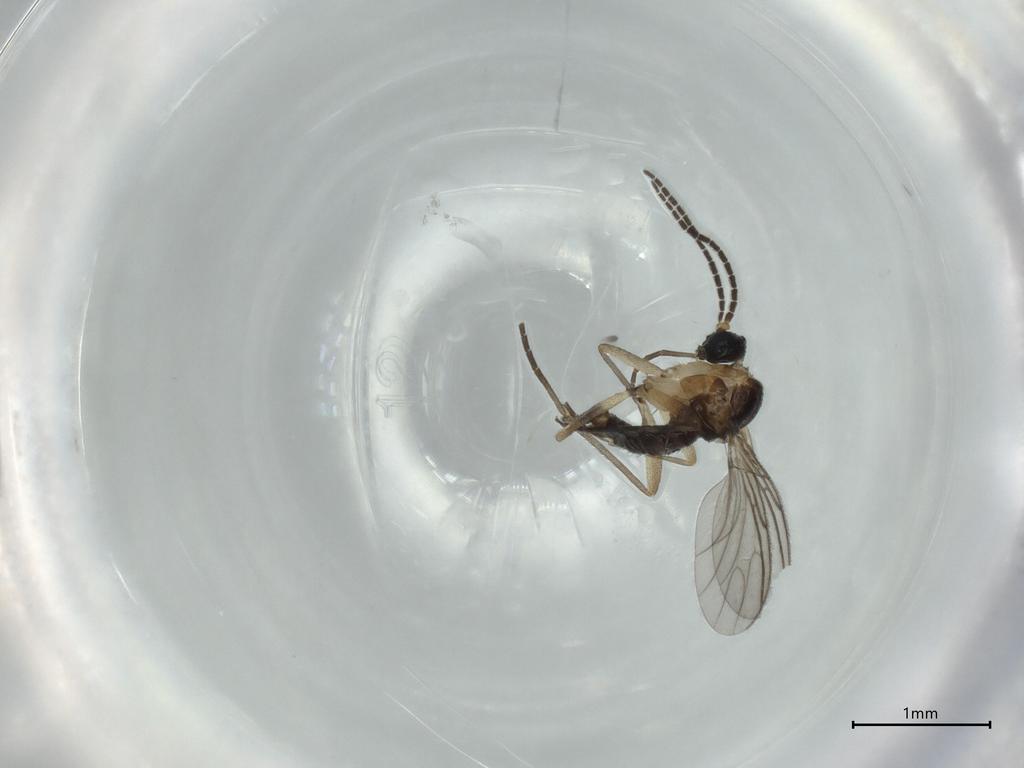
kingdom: Animalia
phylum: Arthropoda
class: Insecta
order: Diptera
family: Sciaridae
